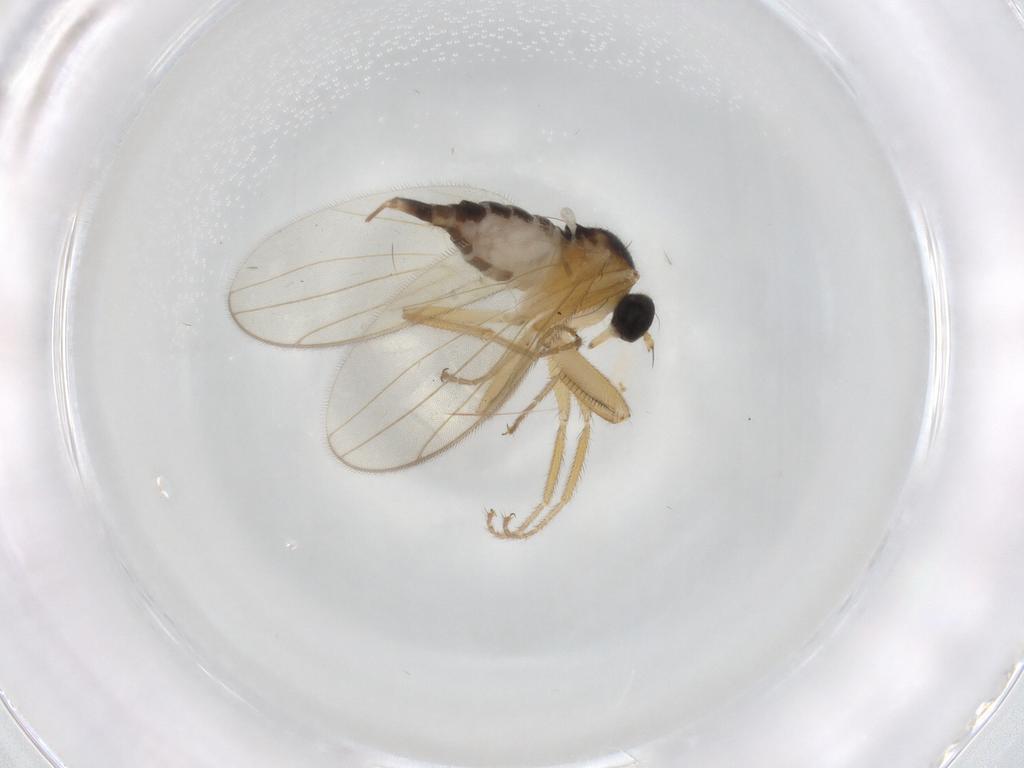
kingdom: Animalia
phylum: Arthropoda
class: Insecta
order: Diptera
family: Sciaridae
